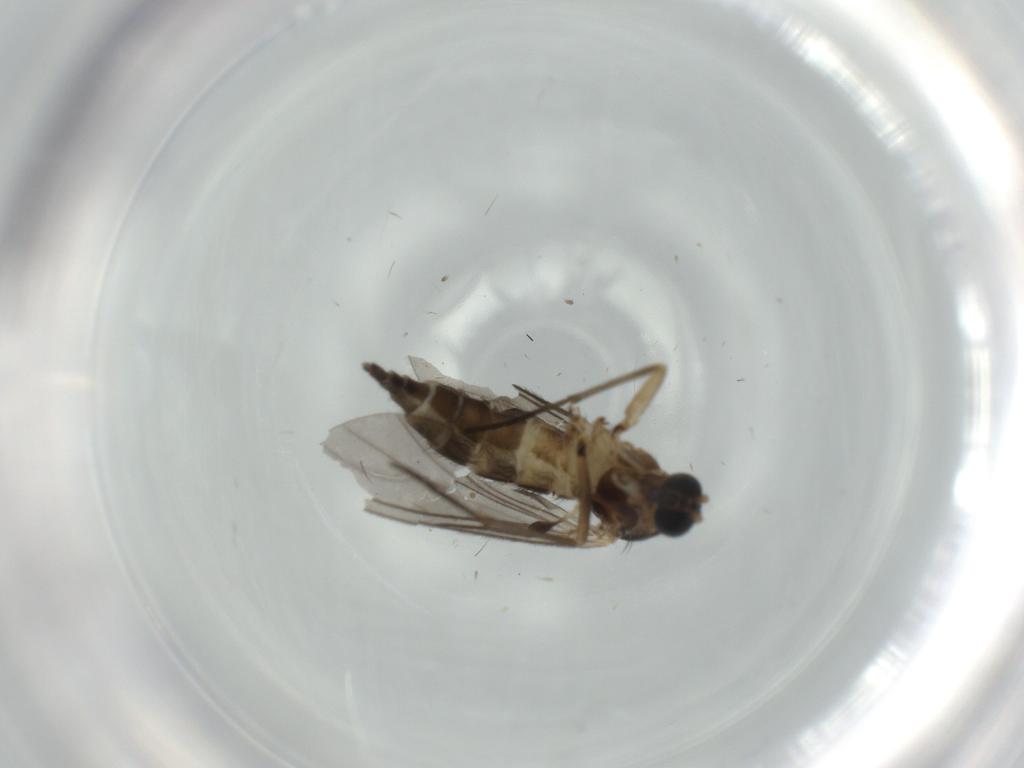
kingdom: Animalia
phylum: Arthropoda
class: Insecta
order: Diptera
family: Sciaridae
